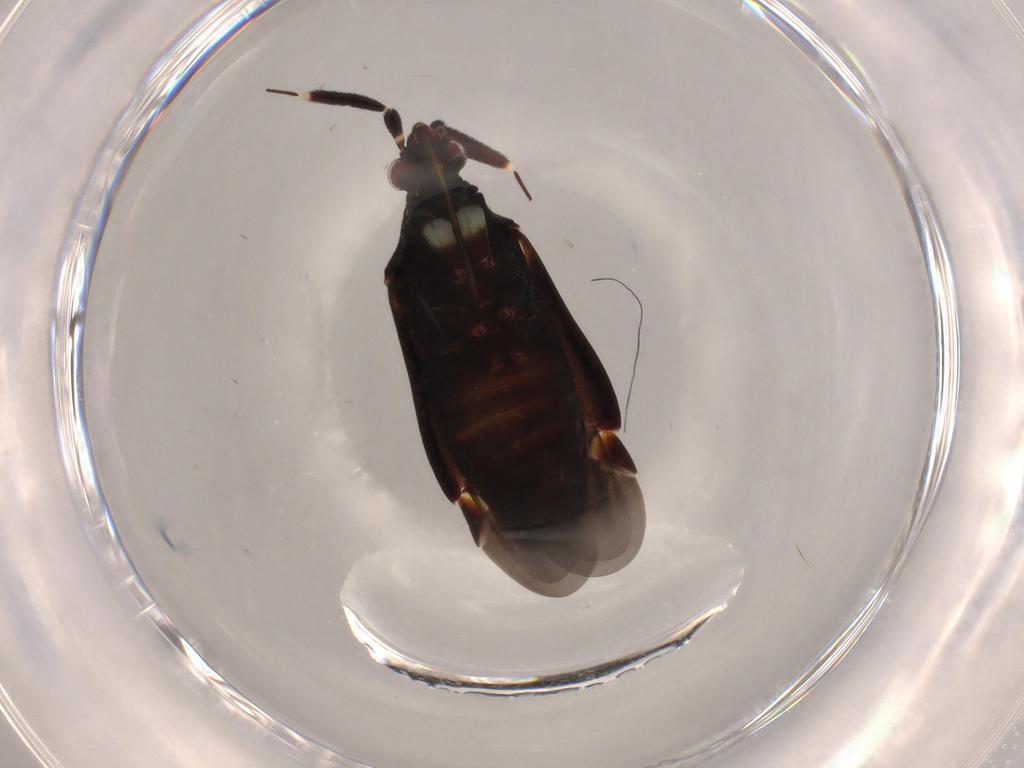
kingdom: Animalia
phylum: Arthropoda
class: Insecta
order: Hemiptera
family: Miridae
